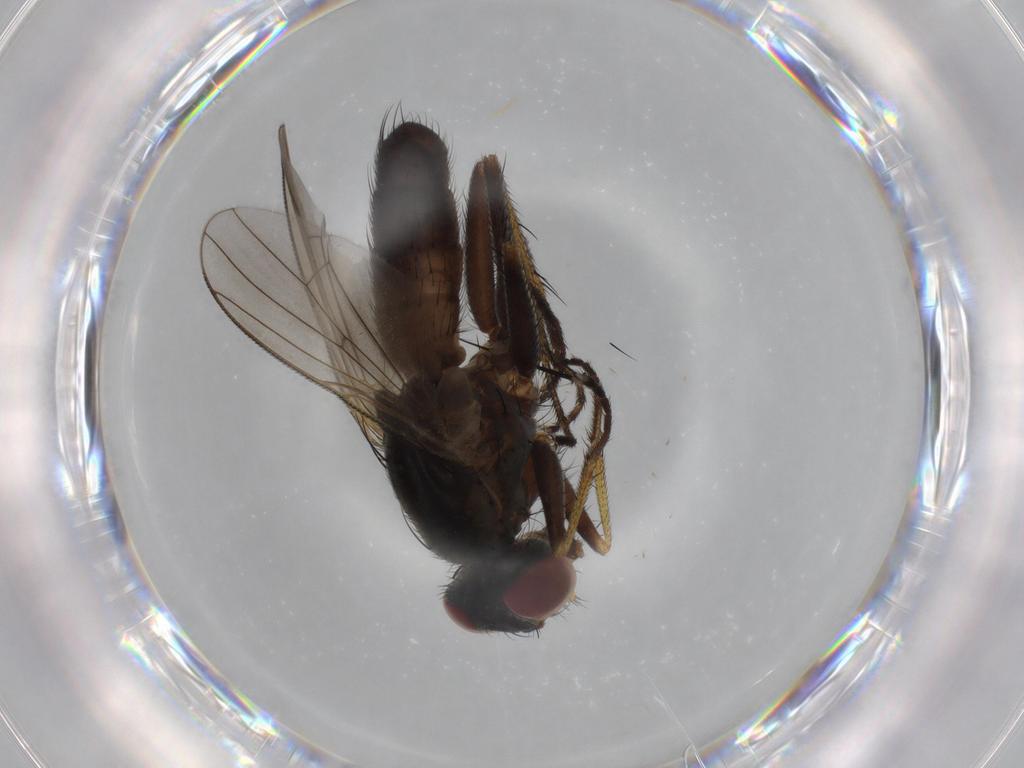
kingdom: Animalia
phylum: Arthropoda
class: Insecta
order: Diptera
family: Muscidae
